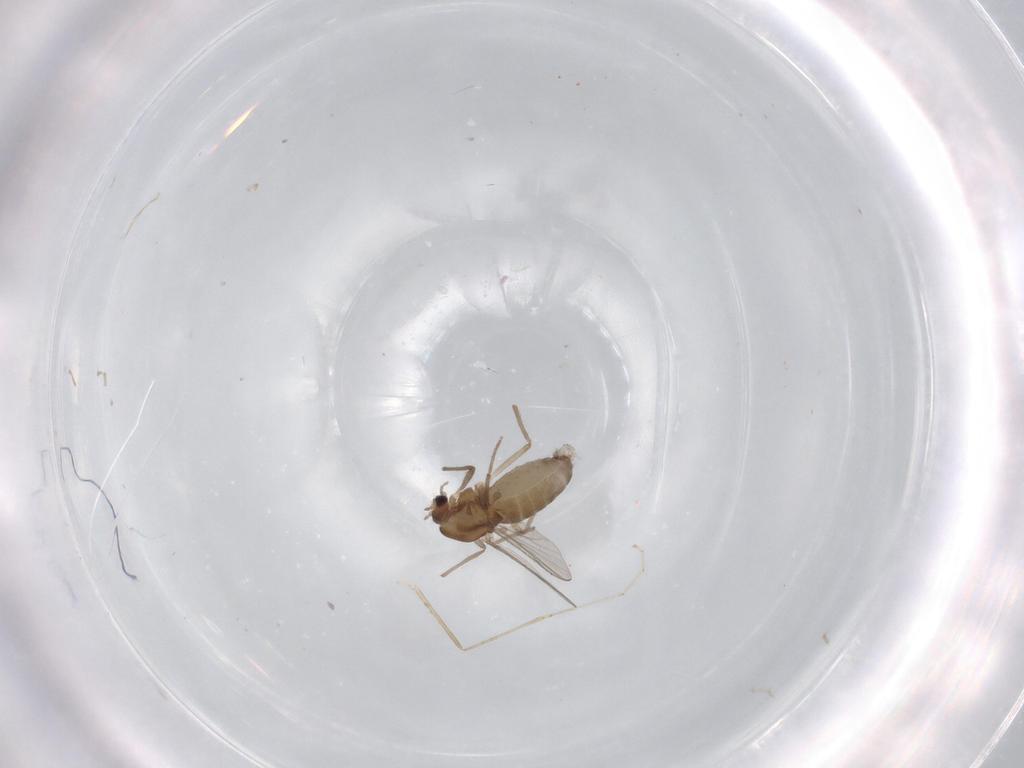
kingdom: Animalia
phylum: Arthropoda
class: Insecta
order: Diptera
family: Chironomidae
